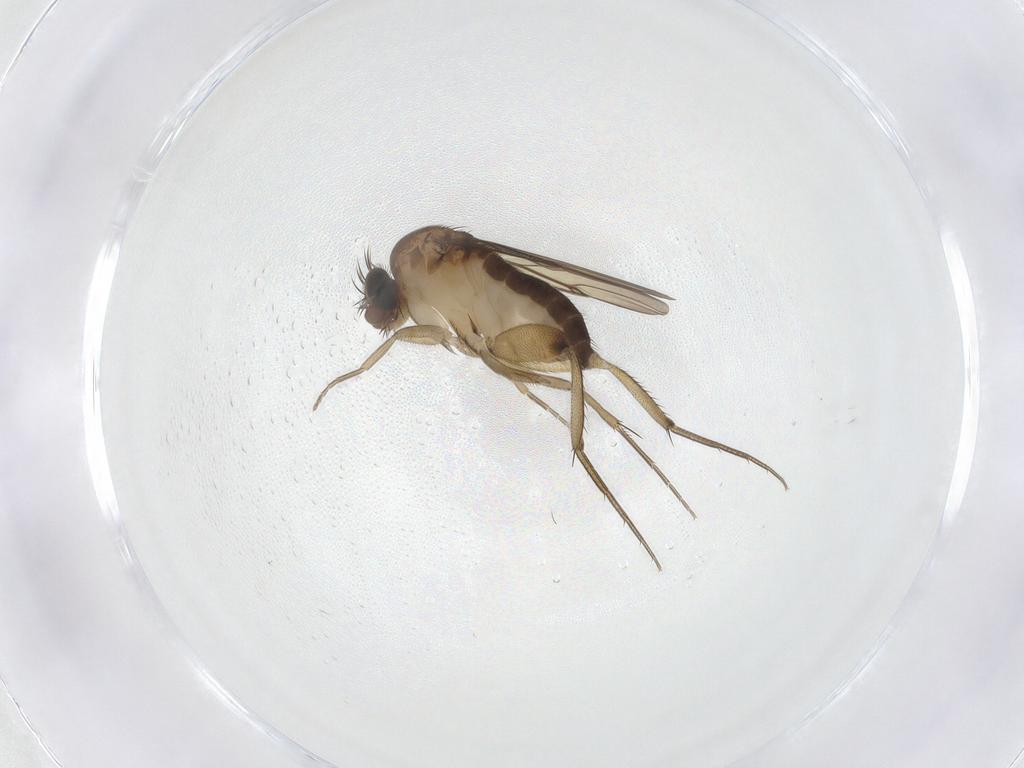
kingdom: Animalia
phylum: Arthropoda
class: Insecta
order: Diptera
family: Phoridae
